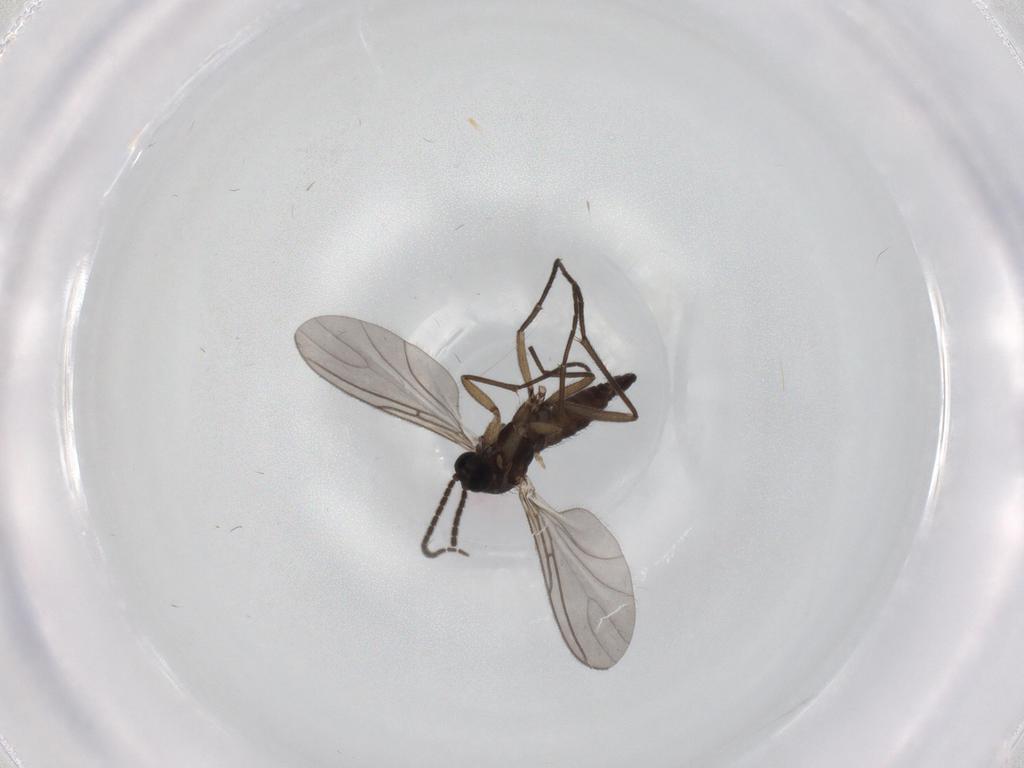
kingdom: Animalia
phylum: Arthropoda
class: Insecta
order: Diptera
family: Sciaridae
